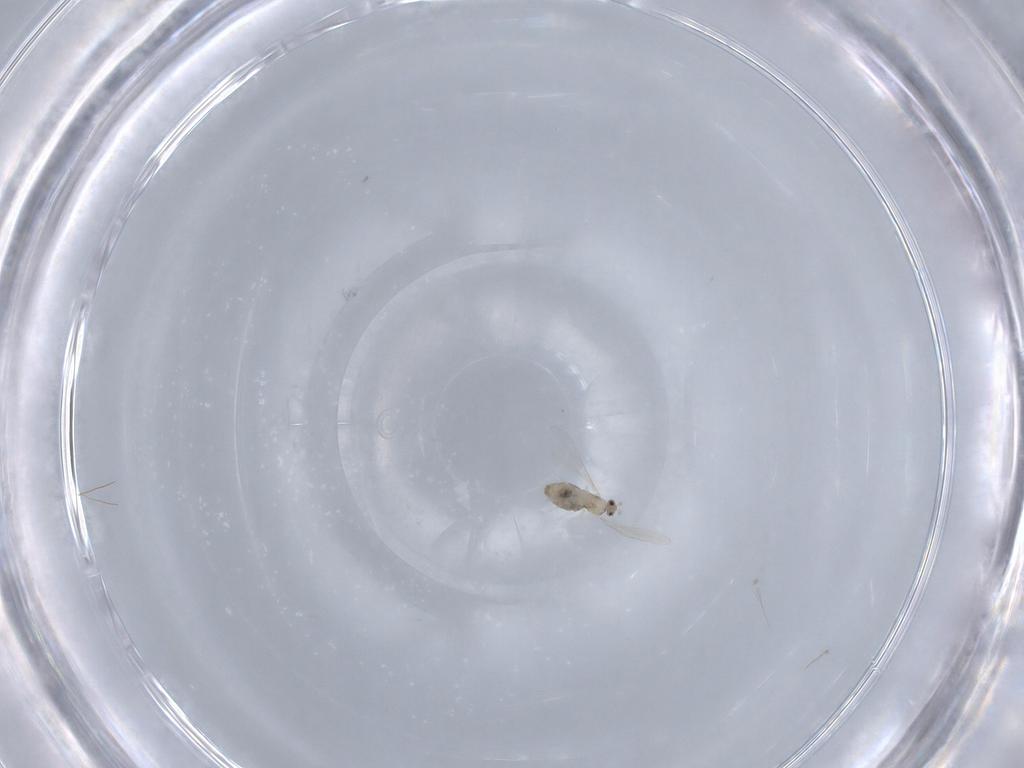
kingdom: Animalia
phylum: Arthropoda
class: Insecta
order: Diptera
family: Cecidomyiidae
